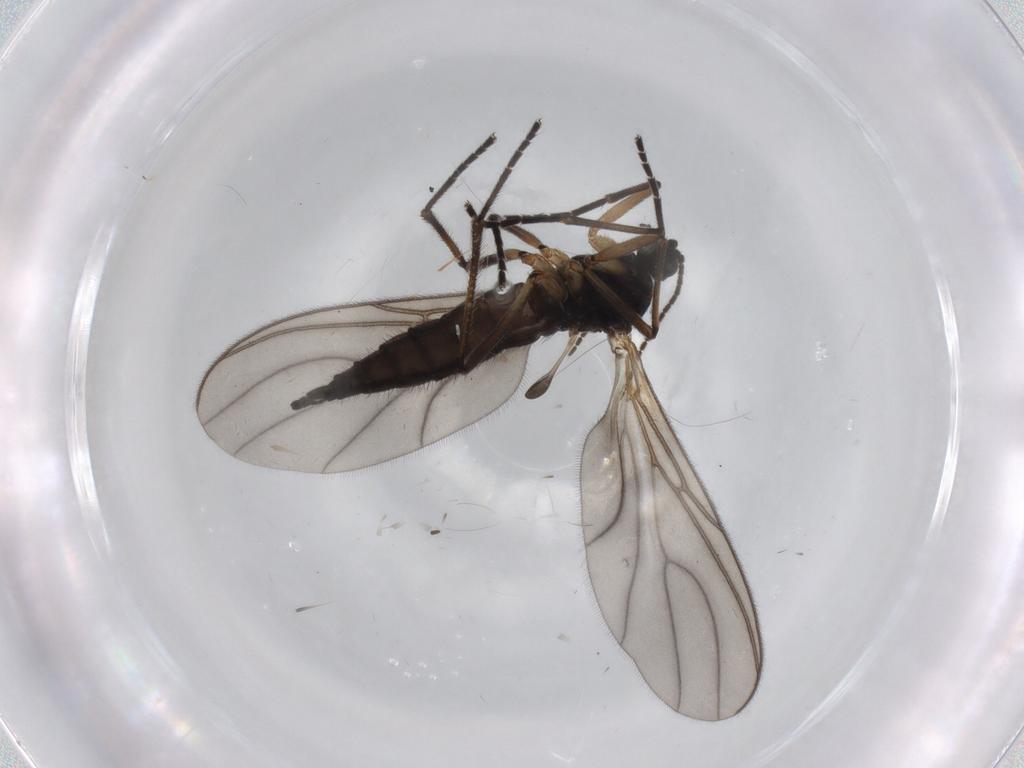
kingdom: Animalia
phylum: Arthropoda
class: Insecta
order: Diptera
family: Sciaridae
